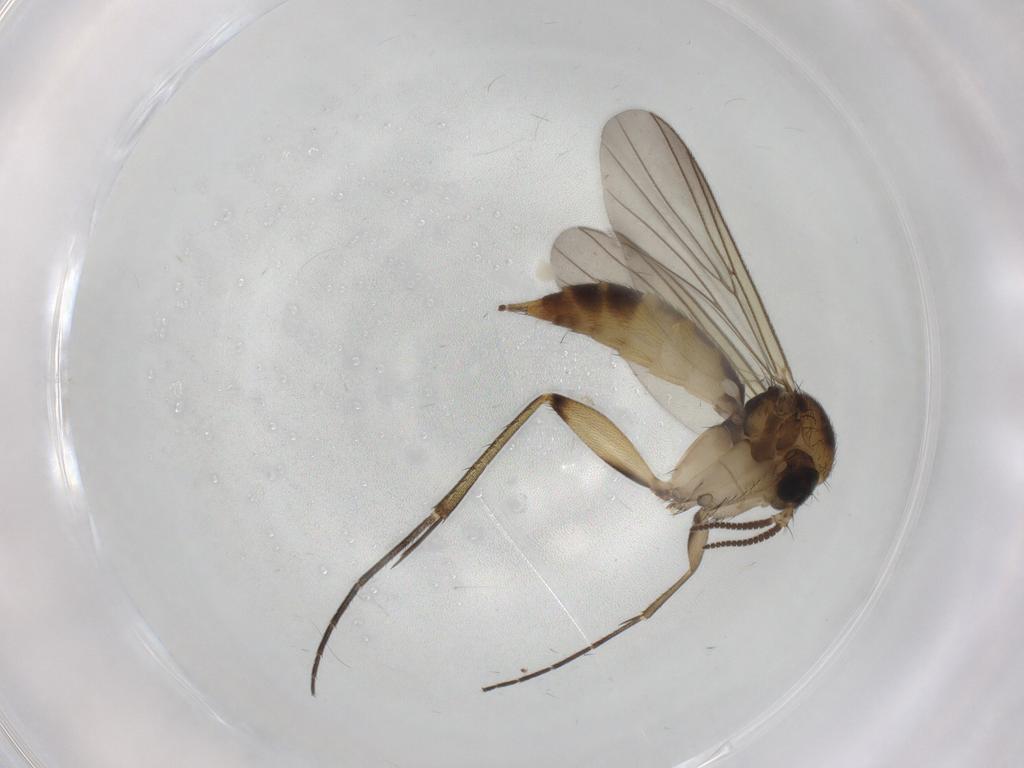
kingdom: Animalia
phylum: Arthropoda
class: Insecta
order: Diptera
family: Mycetophilidae
